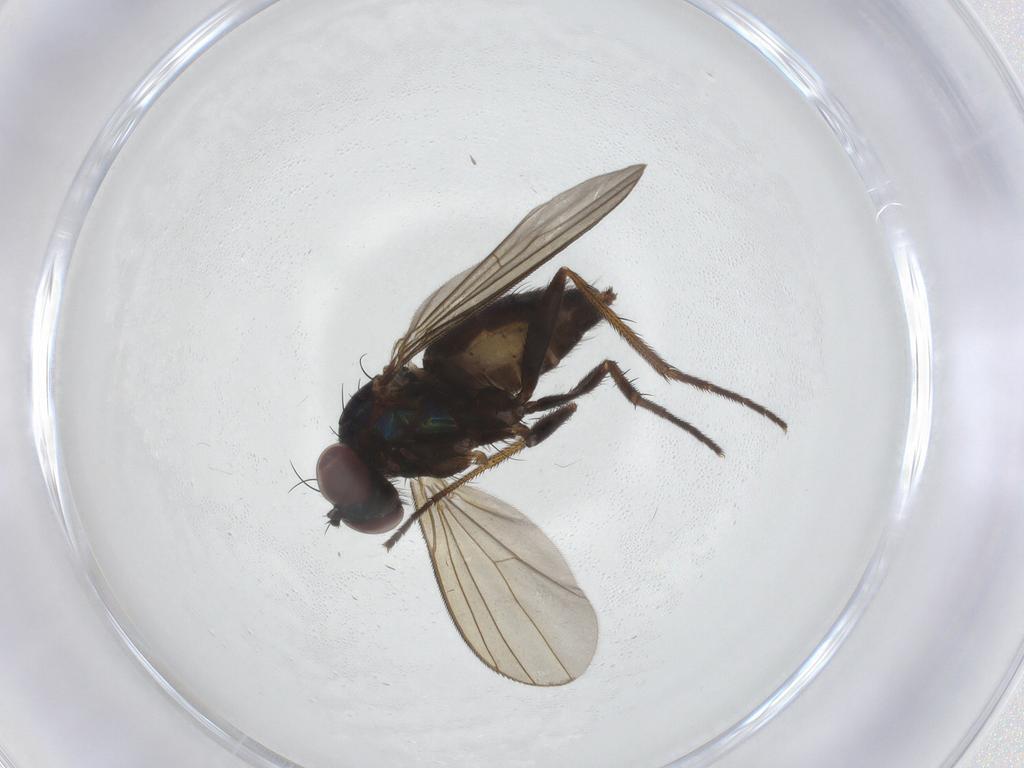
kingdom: Animalia
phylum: Arthropoda
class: Insecta
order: Diptera
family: Dolichopodidae
